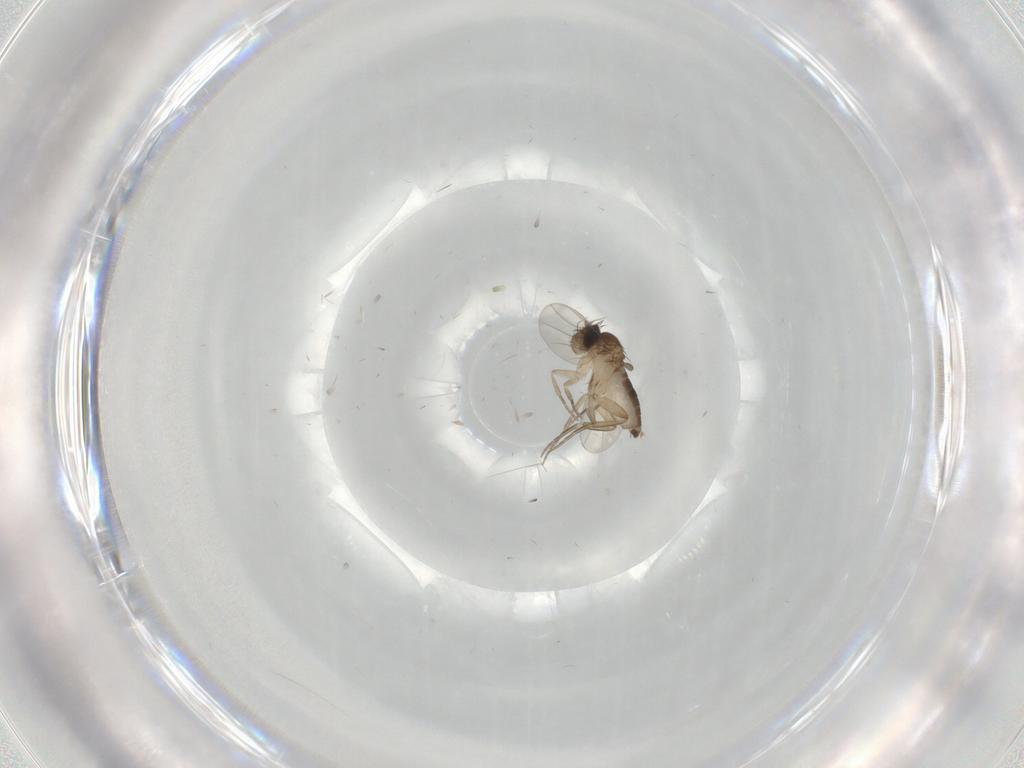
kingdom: Animalia
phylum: Arthropoda
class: Insecta
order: Diptera
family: Phoridae
